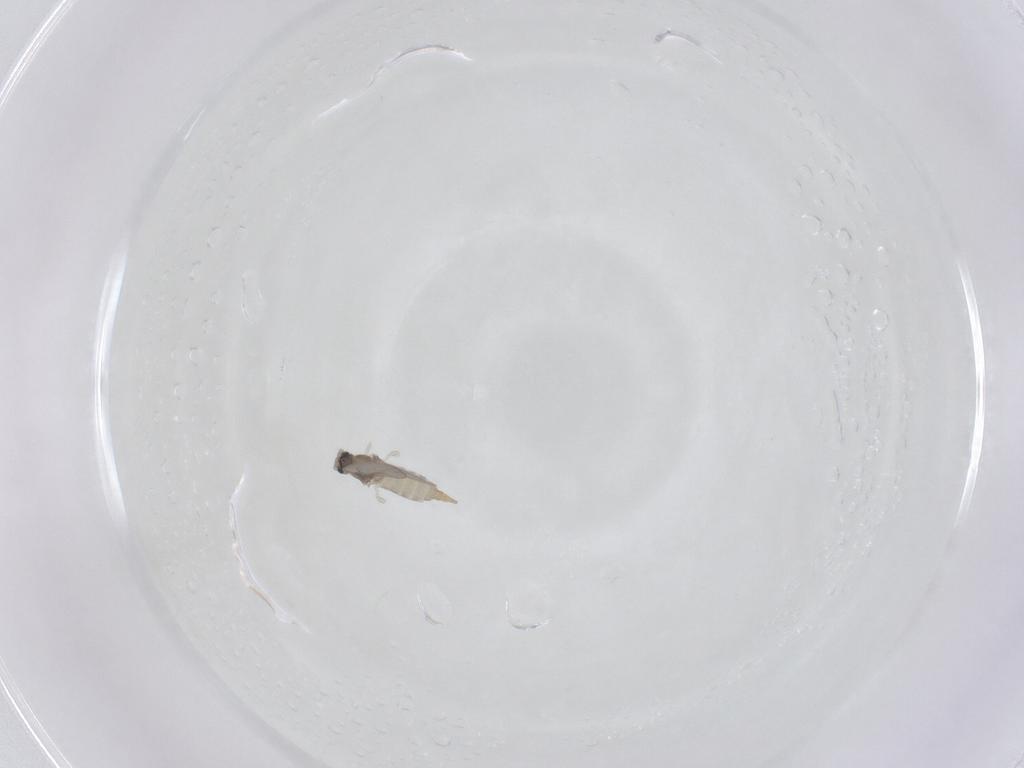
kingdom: Animalia
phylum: Arthropoda
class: Insecta
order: Diptera
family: Cecidomyiidae
